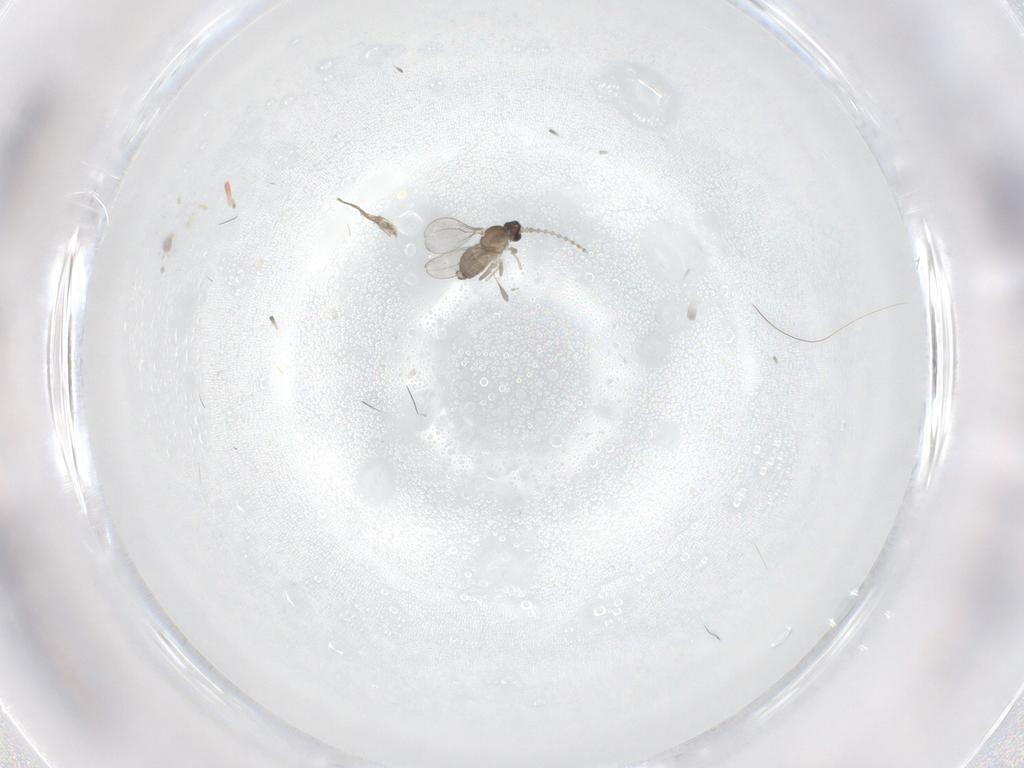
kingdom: Animalia
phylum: Arthropoda
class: Insecta
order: Diptera
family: Cecidomyiidae
